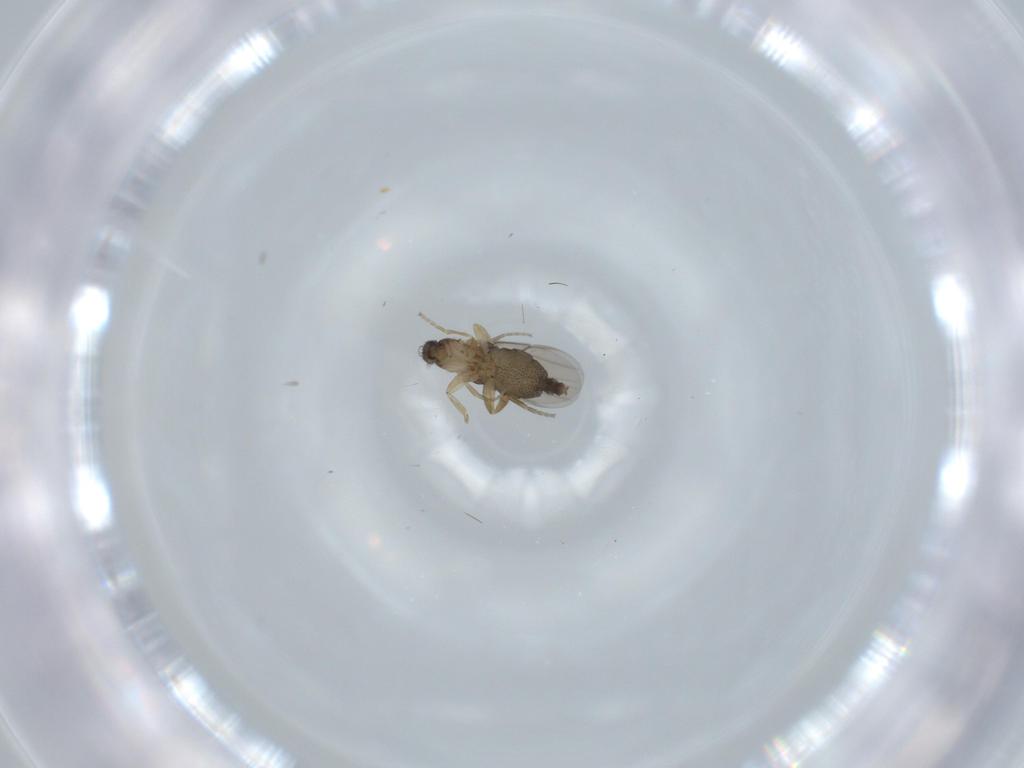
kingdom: Animalia
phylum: Arthropoda
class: Insecta
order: Diptera
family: Phoridae
